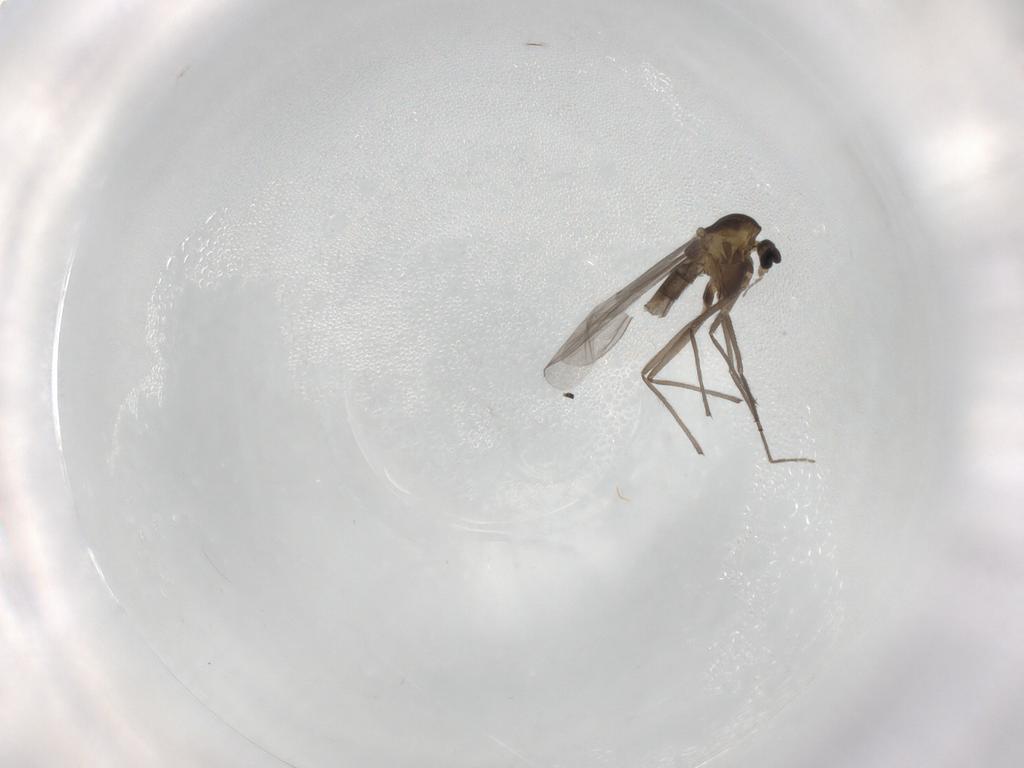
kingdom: Animalia
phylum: Arthropoda
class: Insecta
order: Diptera
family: Chironomidae
